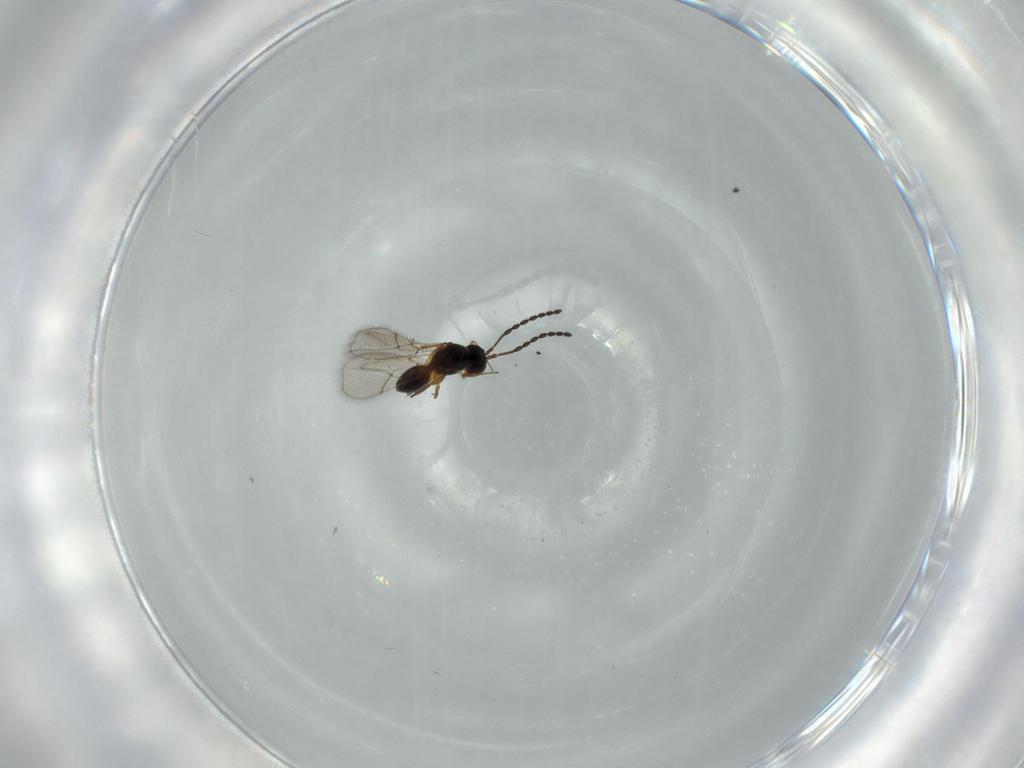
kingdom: Animalia
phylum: Arthropoda
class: Insecta
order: Hymenoptera
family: Figitidae
